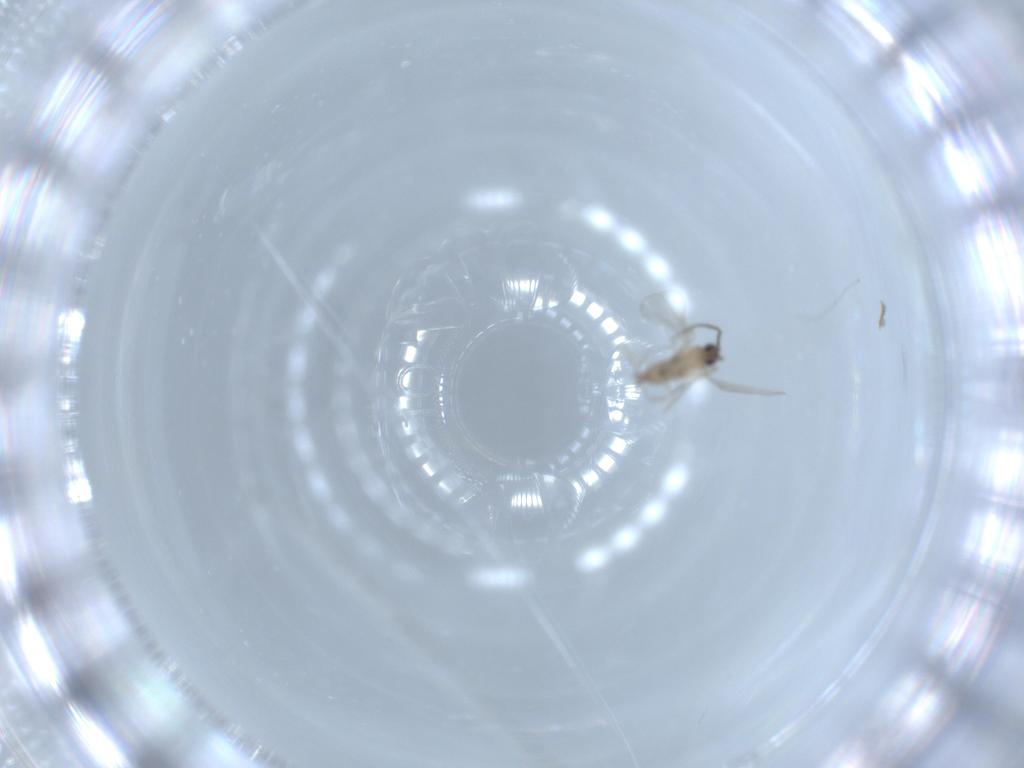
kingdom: Animalia
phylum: Arthropoda
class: Insecta
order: Diptera
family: Cecidomyiidae
